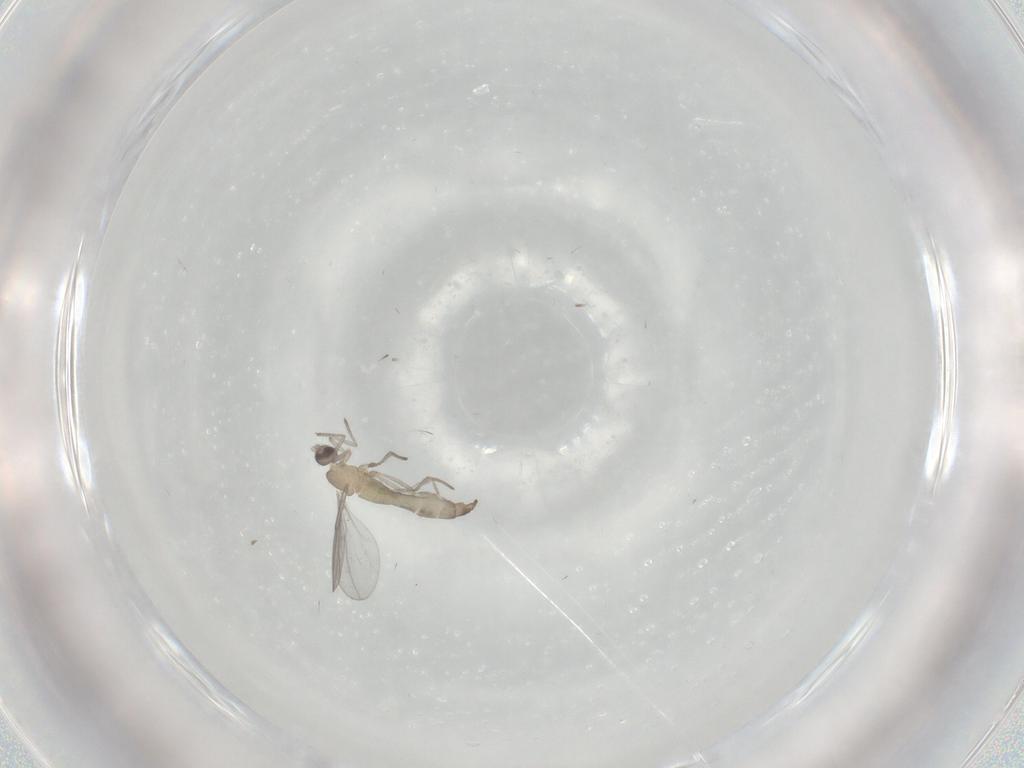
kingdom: Animalia
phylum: Arthropoda
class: Insecta
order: Diptera
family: Cecidomyiidae
